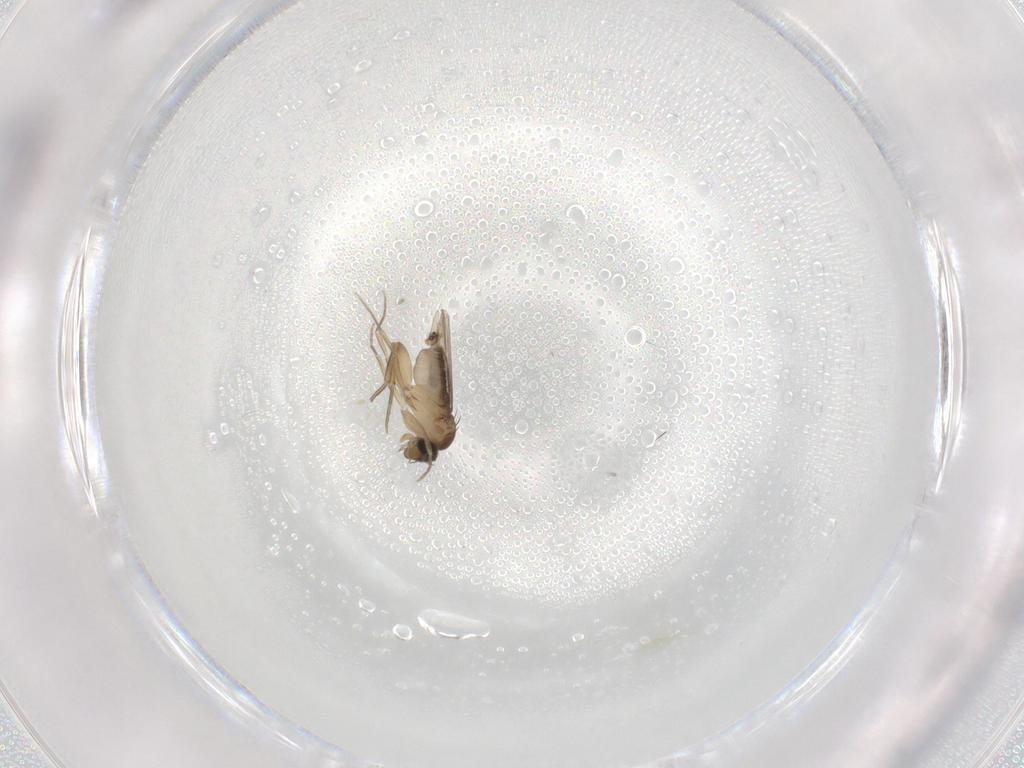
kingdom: Animalia
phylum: Arthropoda
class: Insecta
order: Diptera
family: Phoridae
